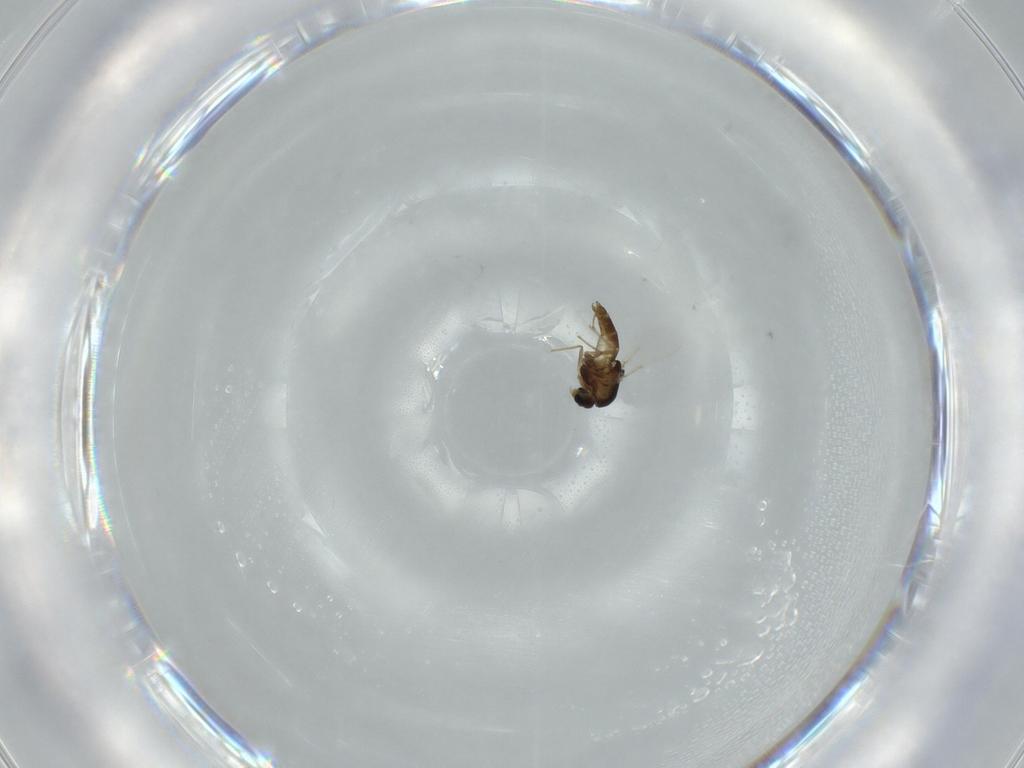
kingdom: Animalia
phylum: Arthropoda
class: Insecta
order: Diptera
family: Chironomidae
